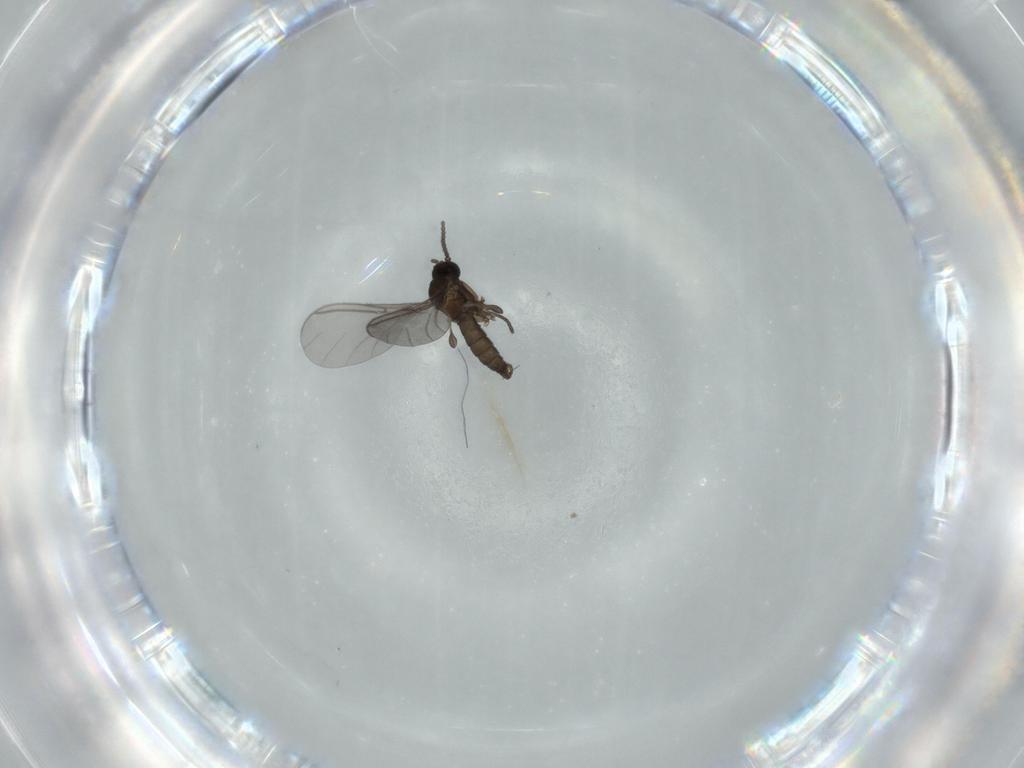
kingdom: Animalia
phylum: Arthropoda
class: Insecta
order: Diptera
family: Sciaridae
